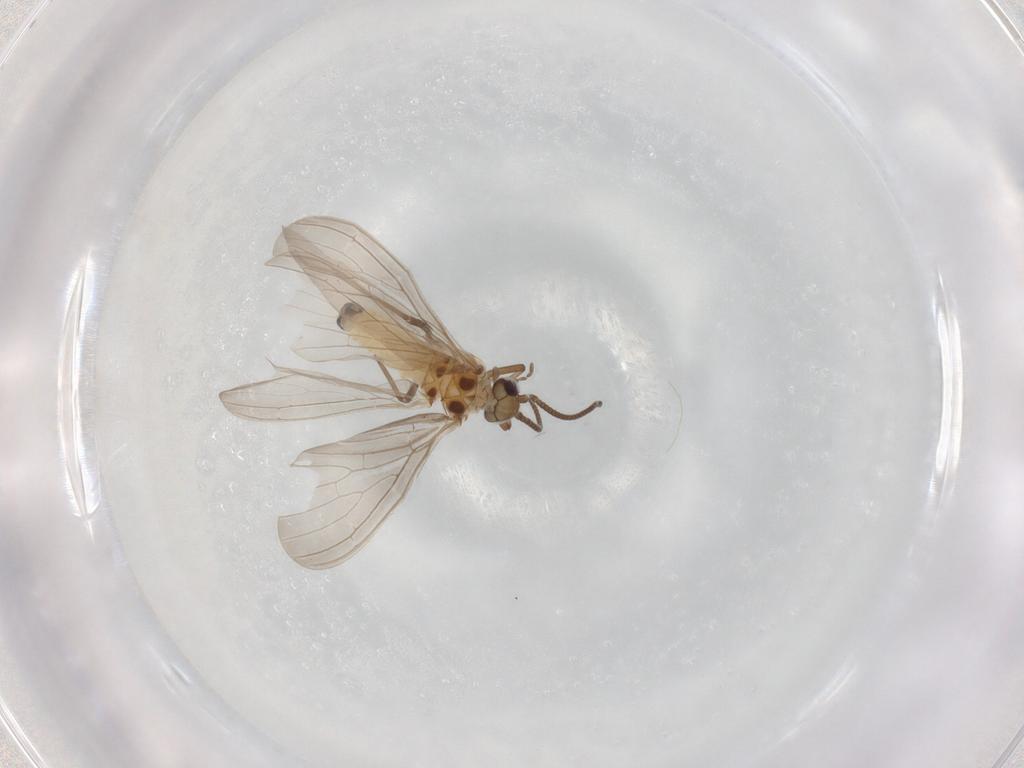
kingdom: Animalia
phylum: Arthropoda
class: Insecta
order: Neuroptera
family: Coniopterygidae
